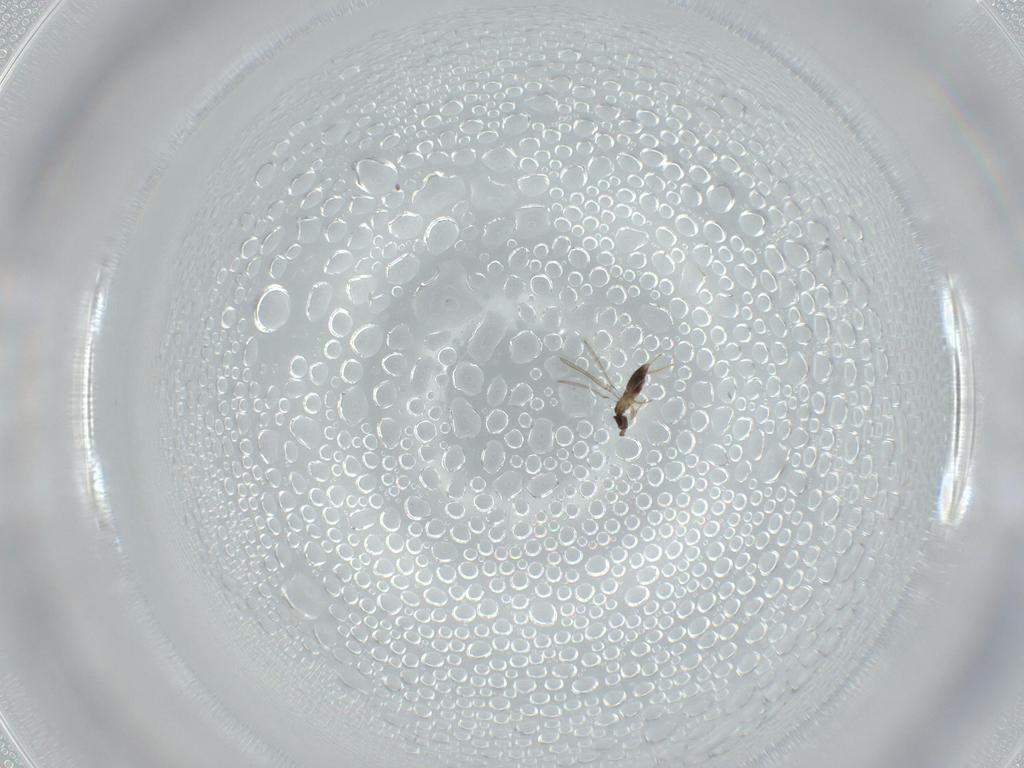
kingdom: Animalia
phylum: Arthropoda
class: Insecta
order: Hymenoptera
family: Mymaridae
